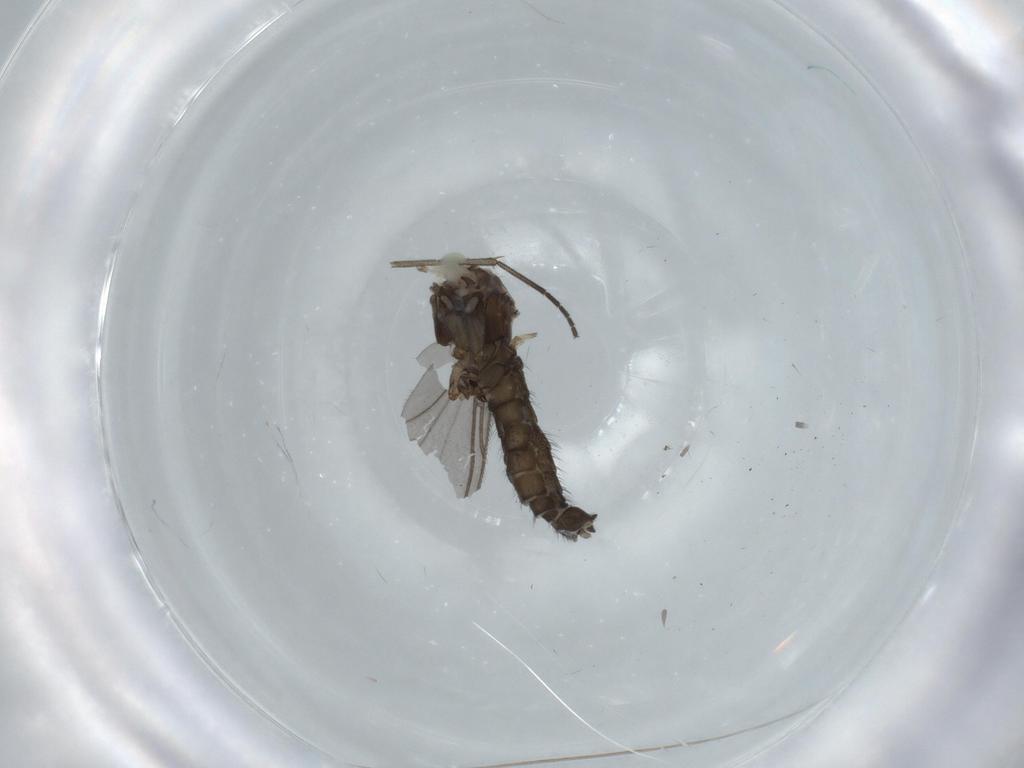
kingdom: Animalia
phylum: Arthropoda
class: Insecta
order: Diptera
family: Sciaridae
